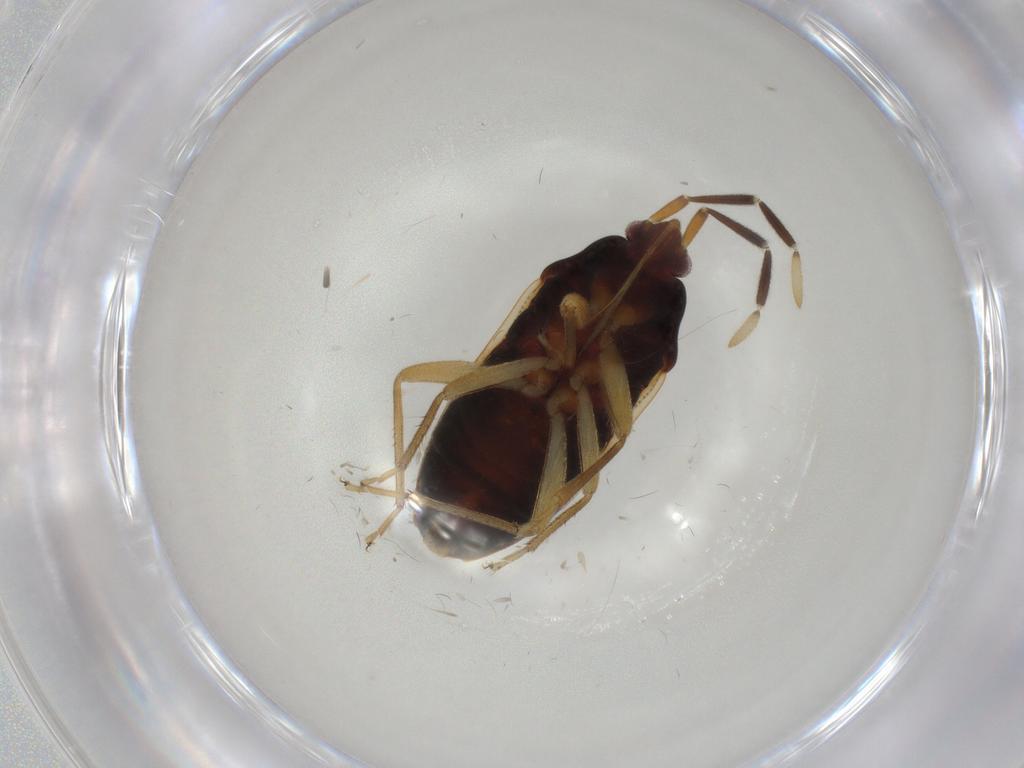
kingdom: Animalia
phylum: Arthropoda
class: Insecta
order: Hemiptera
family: Rhyparochromidae
